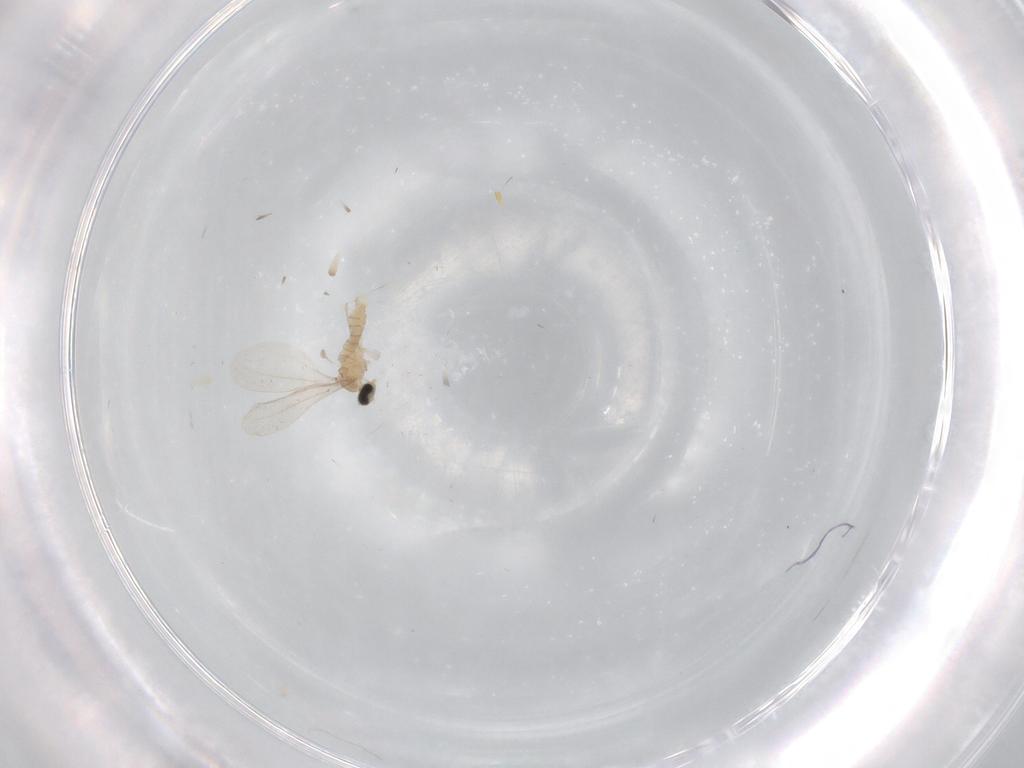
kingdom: Animalia
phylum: Arthropoda
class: Insecta
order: Diptera
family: Cecidomyiidae
